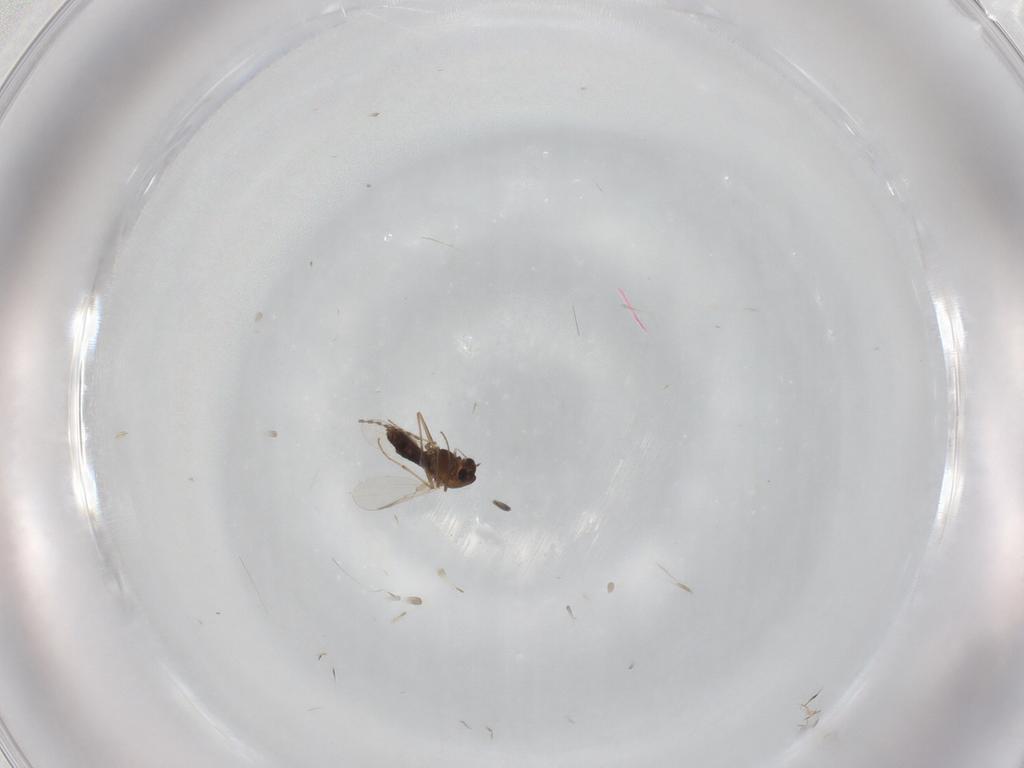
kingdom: Animalia
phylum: Arthropoda
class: Insecta
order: Diptera
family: Chironomidae
